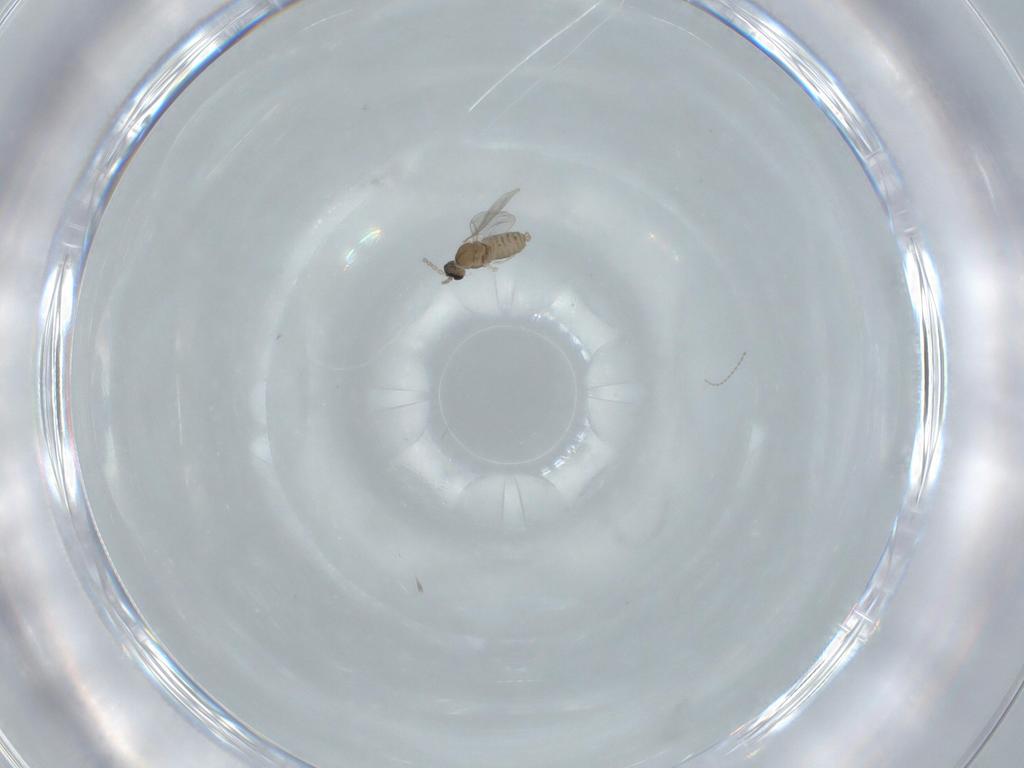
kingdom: Animalia
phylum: Arthropoda
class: Insecta
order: Diptera
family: Cecidomyiidae
